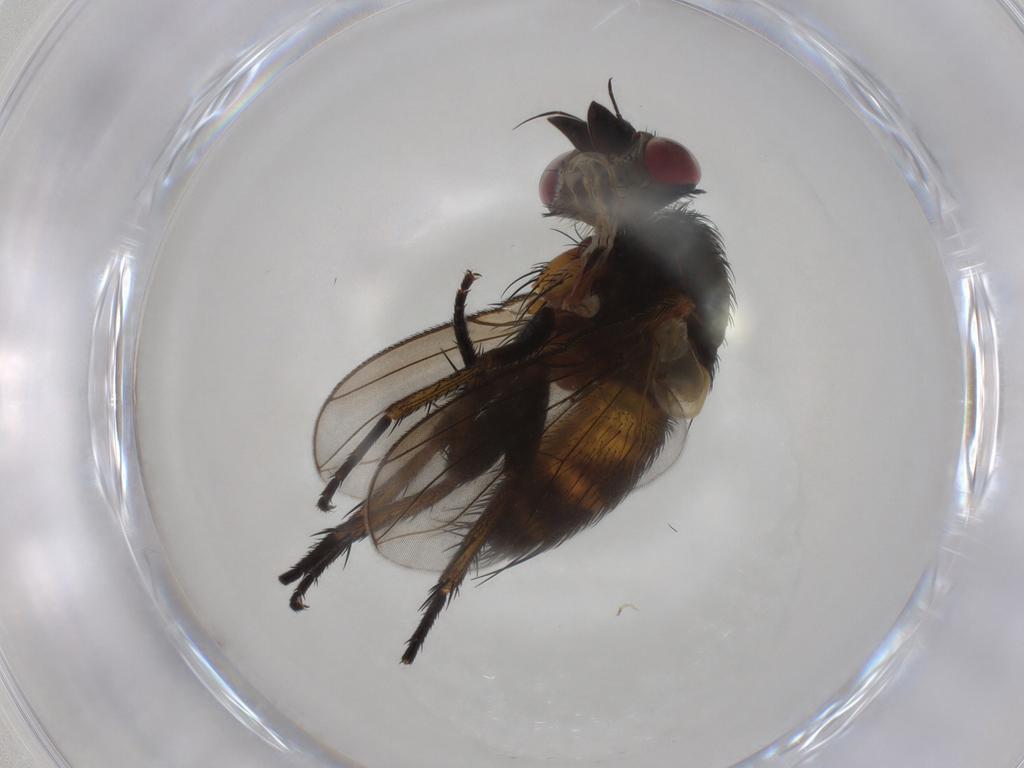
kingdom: Animalia
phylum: Arthropoda
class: Insecta
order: Diptera
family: Tachinidae
